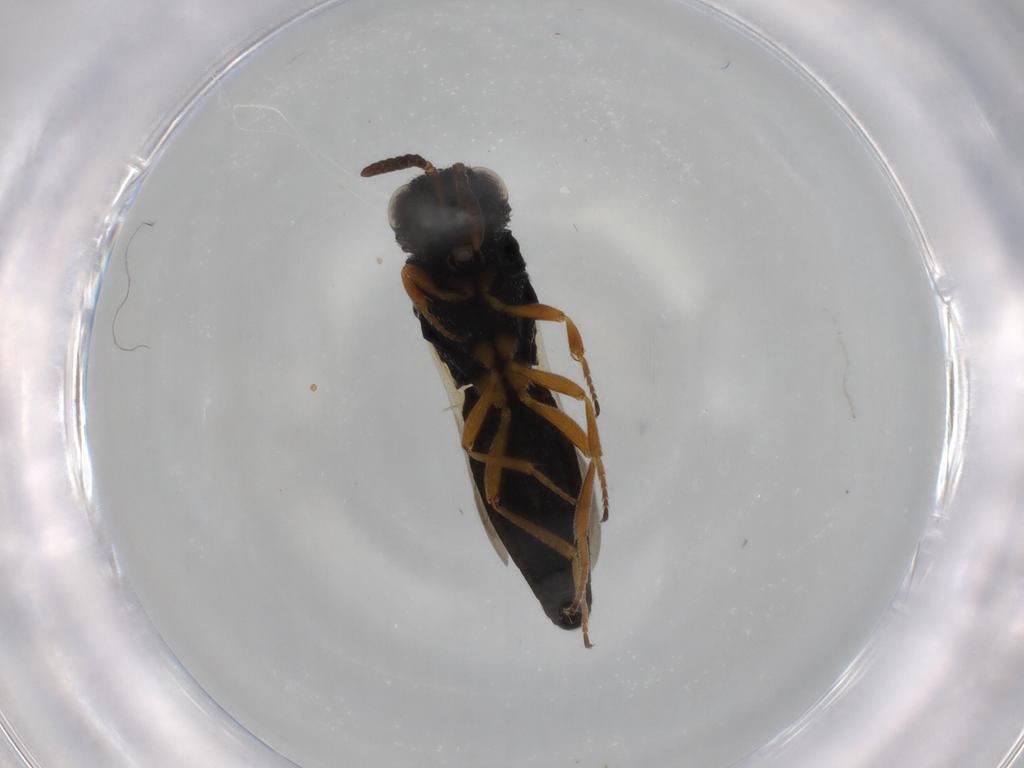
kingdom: Animalia
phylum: Arthropoda
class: Insecta
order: Hymenoptera
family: Scelionidae
